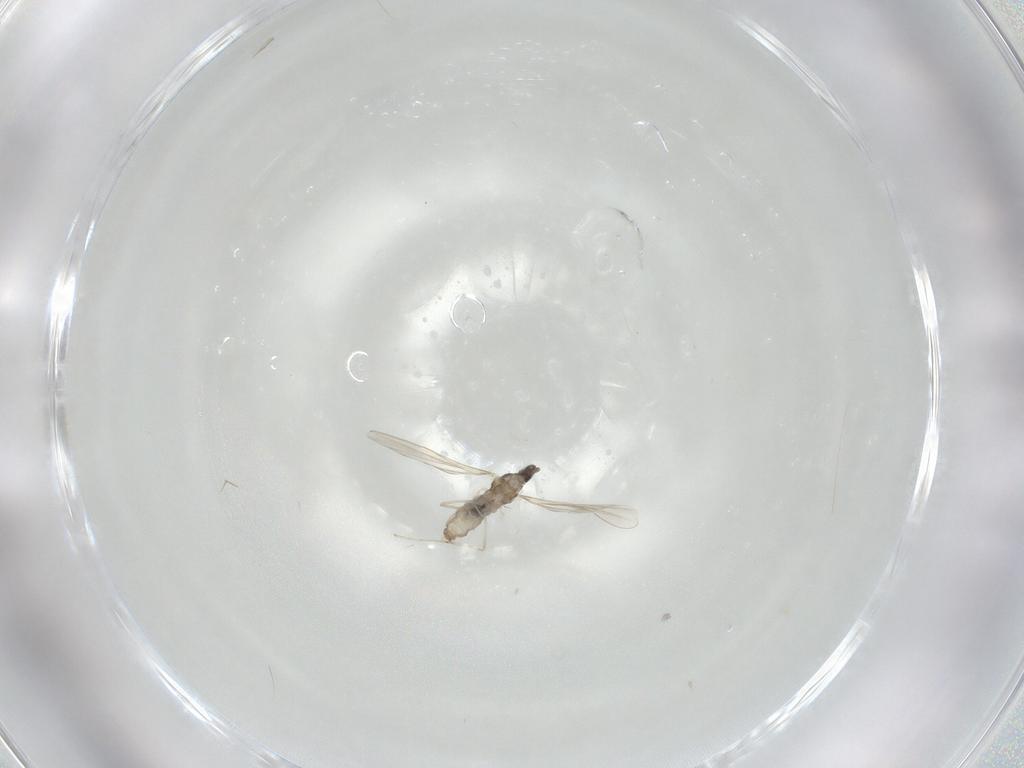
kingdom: Animalia
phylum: Arthropoda
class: Insecta
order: Diptera
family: Cecidomyiidae
